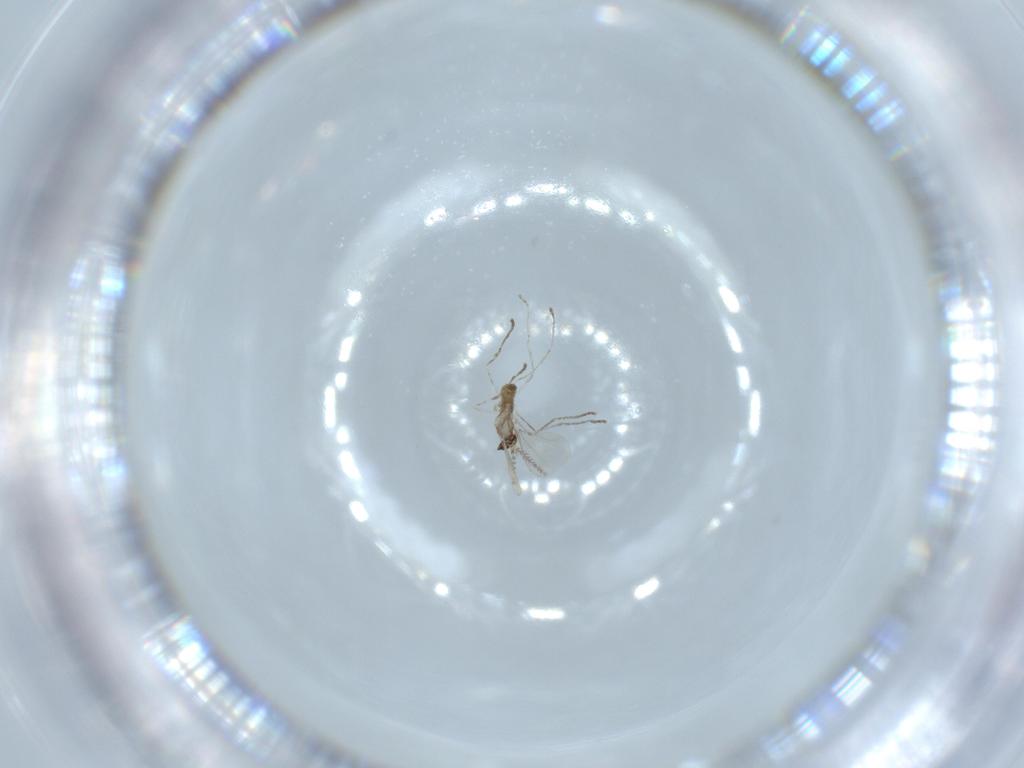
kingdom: Animalia
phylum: Arthropoda
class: Insecta
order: Diptera
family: Cecidomyiidae
